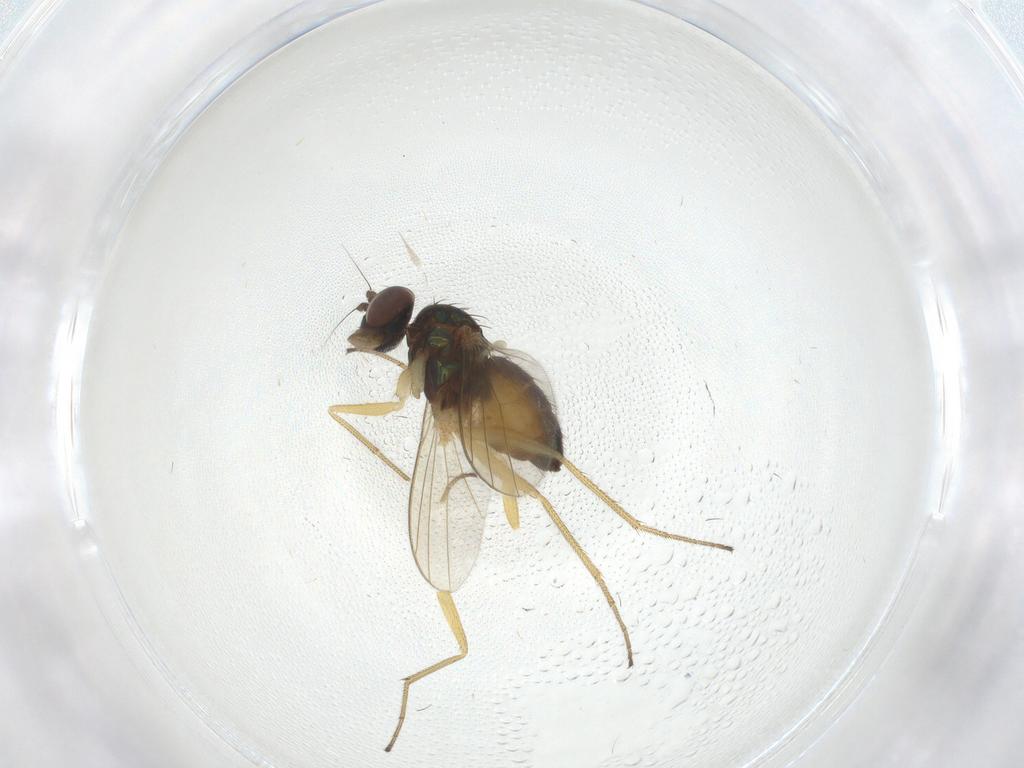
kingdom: Animalia
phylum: Arthropoda
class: Insecta
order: Diptera
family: Dolichopodidae
